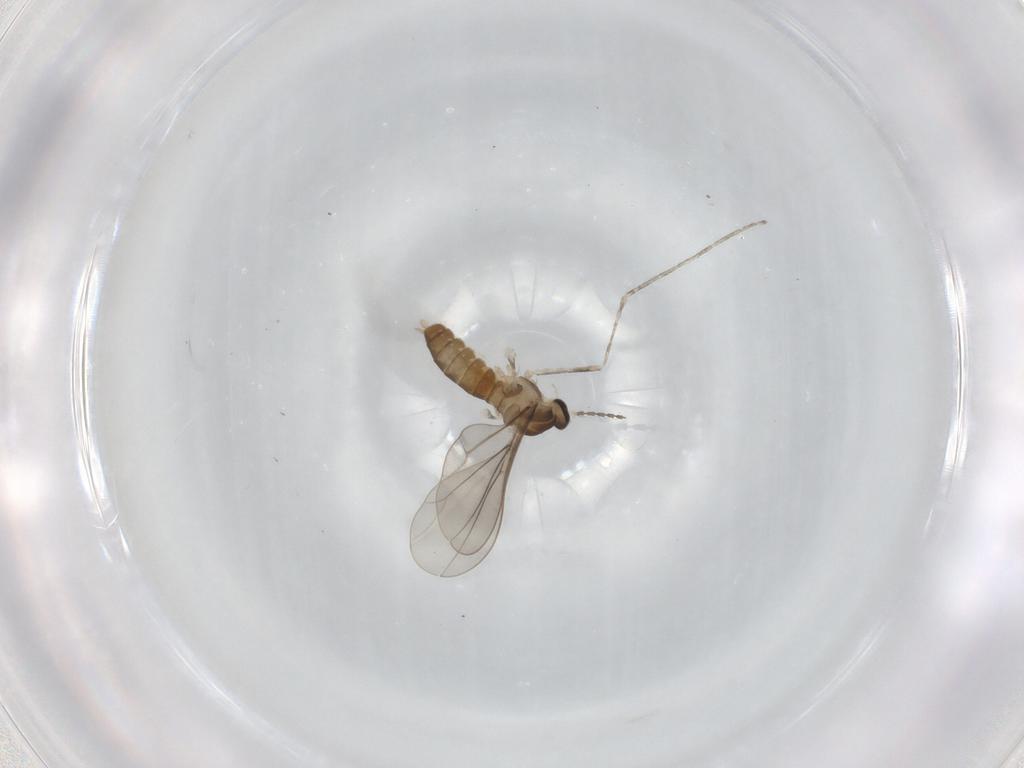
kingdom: Animalia
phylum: Arthropoda
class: Insecta
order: Diptera
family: Cecidomyiidae
